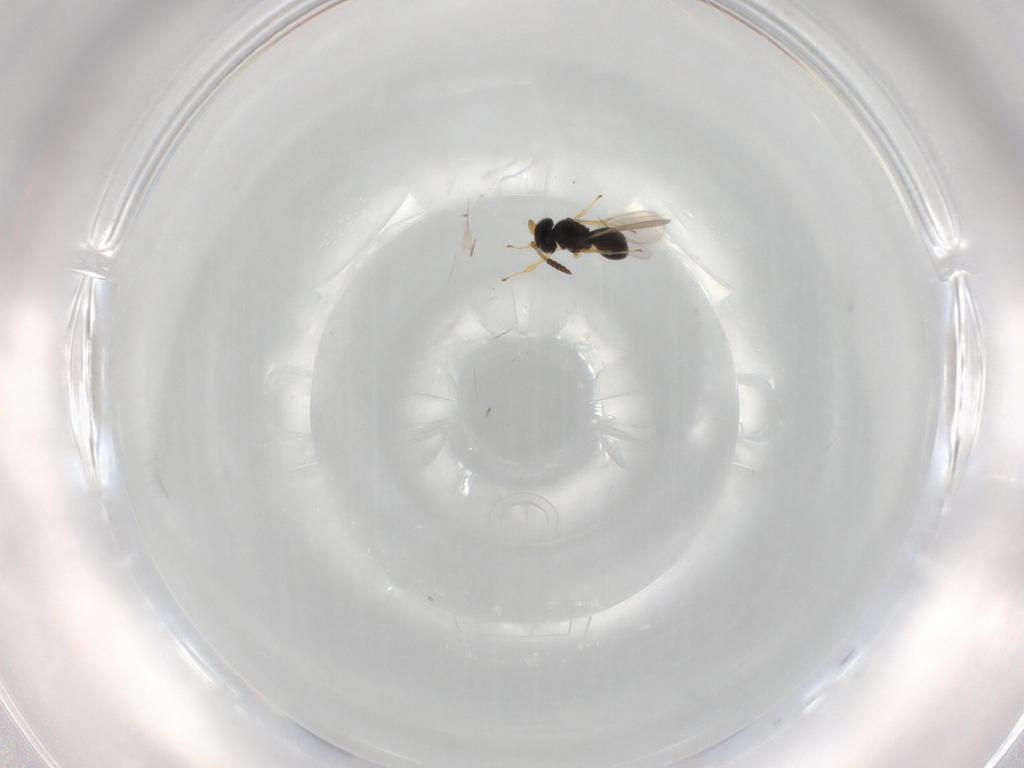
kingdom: Animalia
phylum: Arthropoda
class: Insecta
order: Hymenoptera
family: Scelionidae
